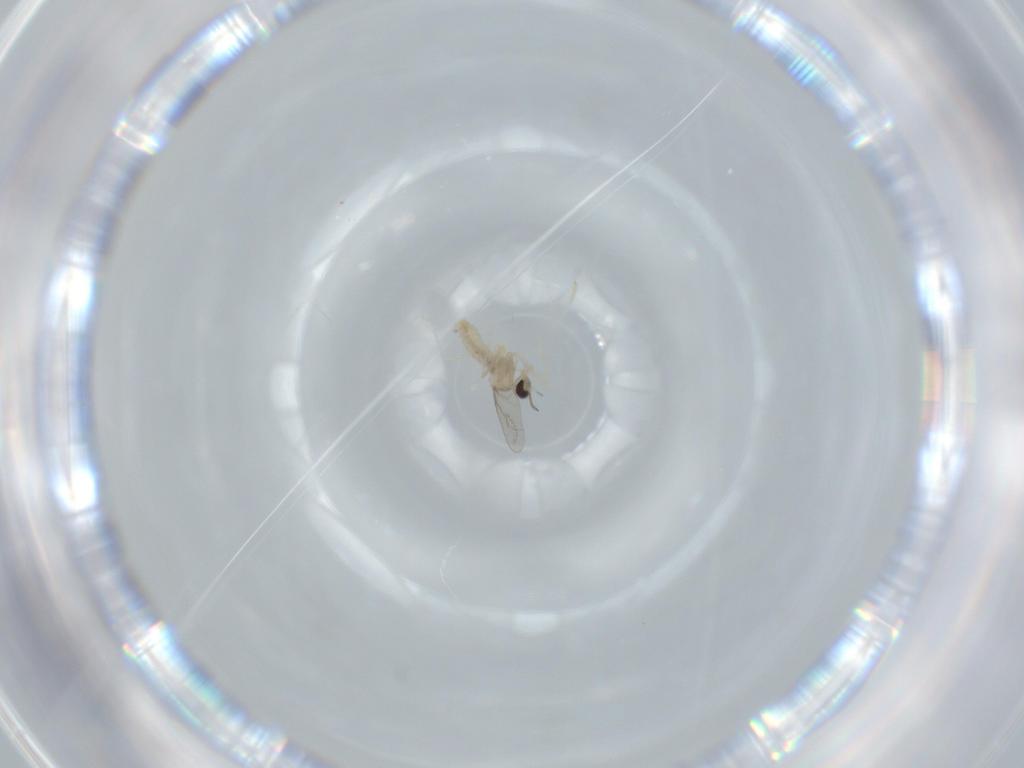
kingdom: Animalia
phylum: Arthropoda
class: Insecta
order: Diptera
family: Cecidomyiidae
